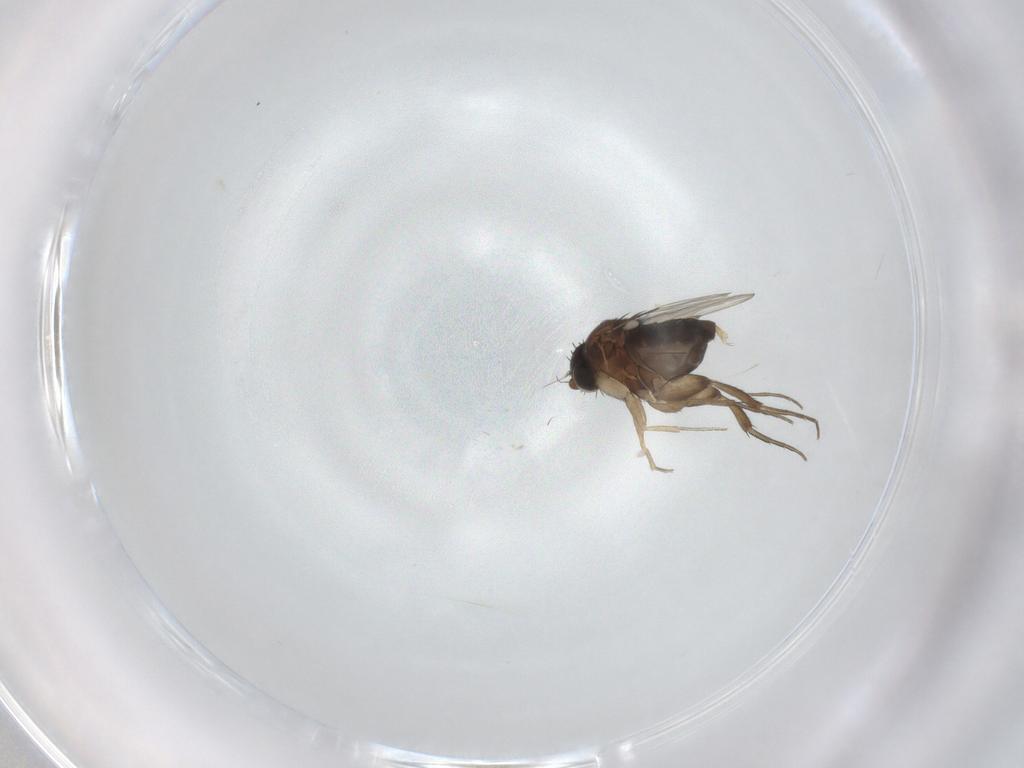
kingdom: Animalia
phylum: Arthropoda
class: Insecta
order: Diptera
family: Phoridae
